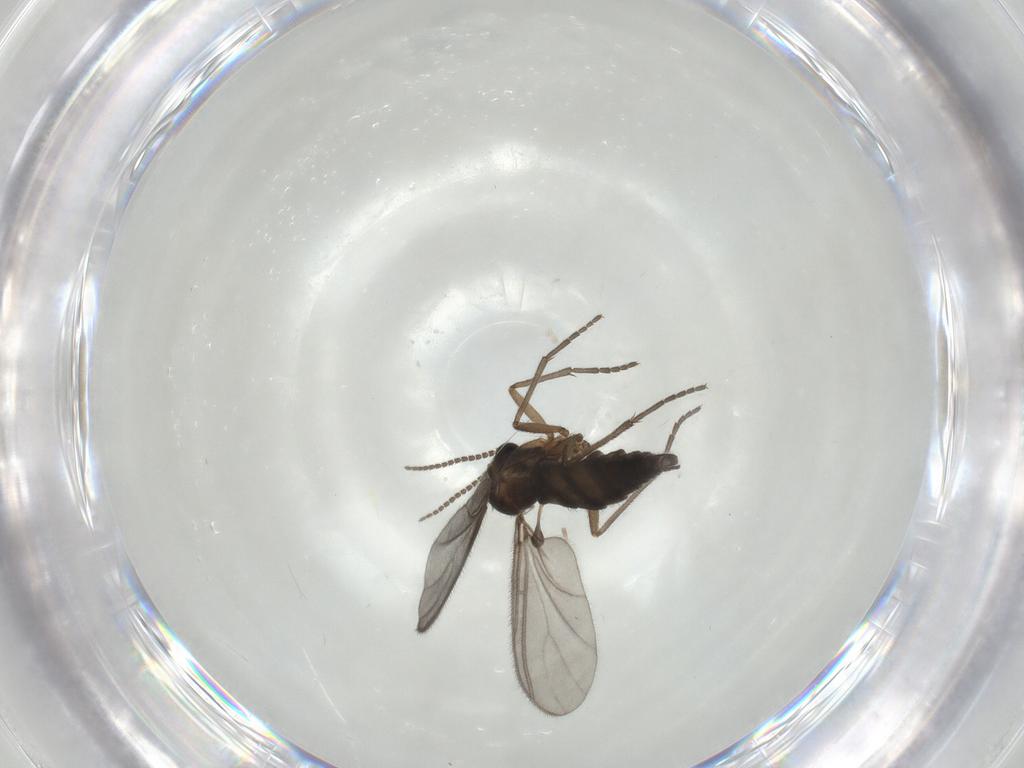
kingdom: Animalia
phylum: Arthropoda
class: Insecta
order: Diptera
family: Sciaridae
